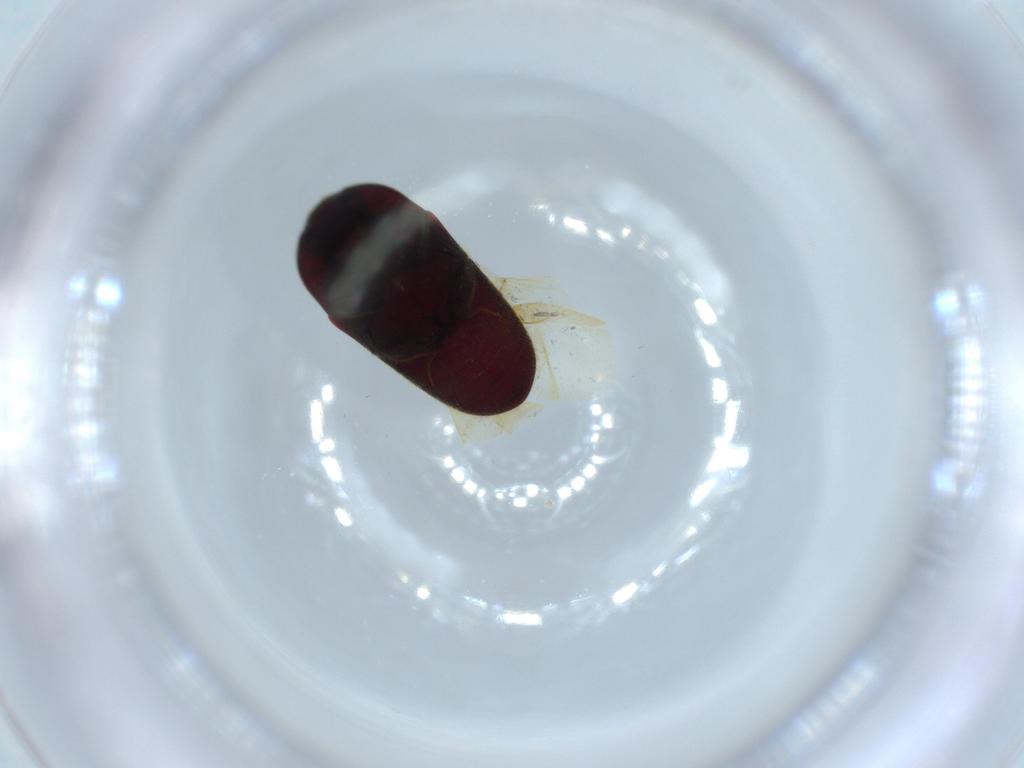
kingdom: Animalia
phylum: Arthropoda
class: Insecta
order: Coleoptera
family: Throscidae
